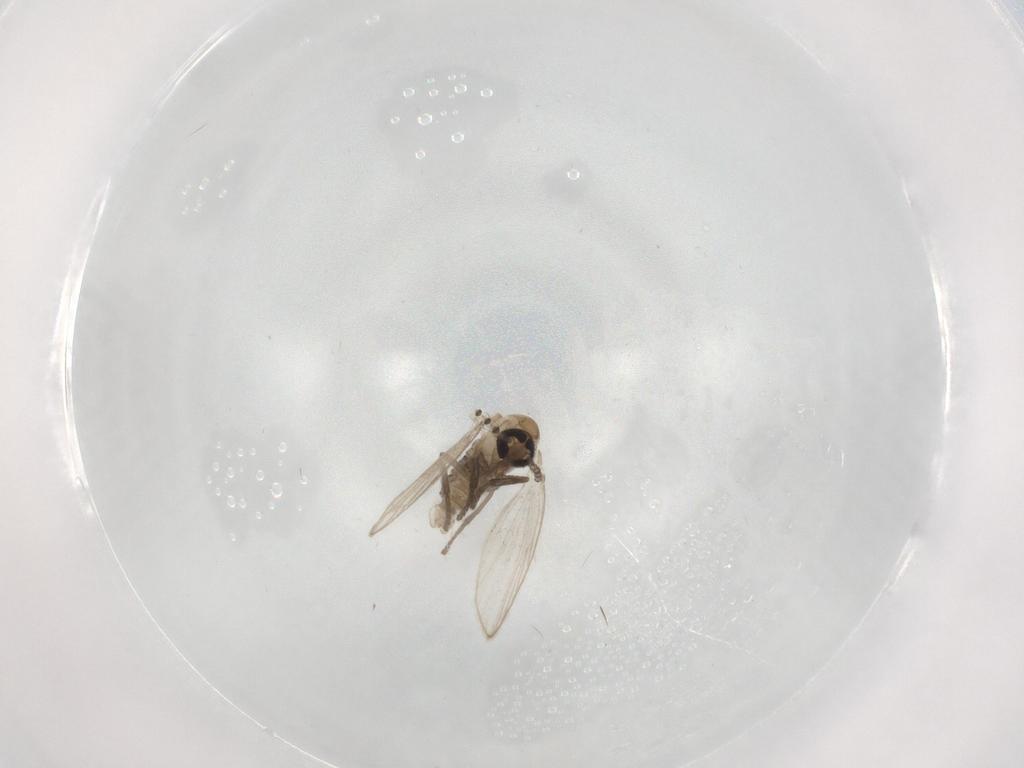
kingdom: Animalia
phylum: Arthropoda
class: Insecta
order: Diptera
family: Psychodidae
